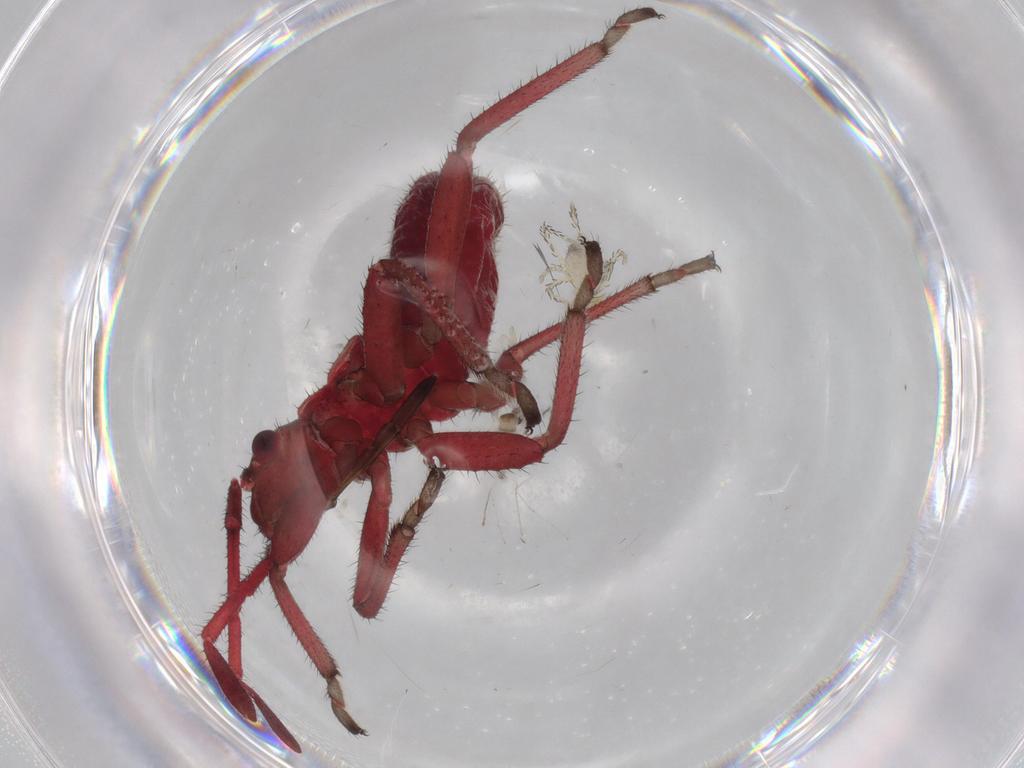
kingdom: Animalia
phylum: Arthropoda
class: Insecta
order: Hemiptera
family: Coreidae
